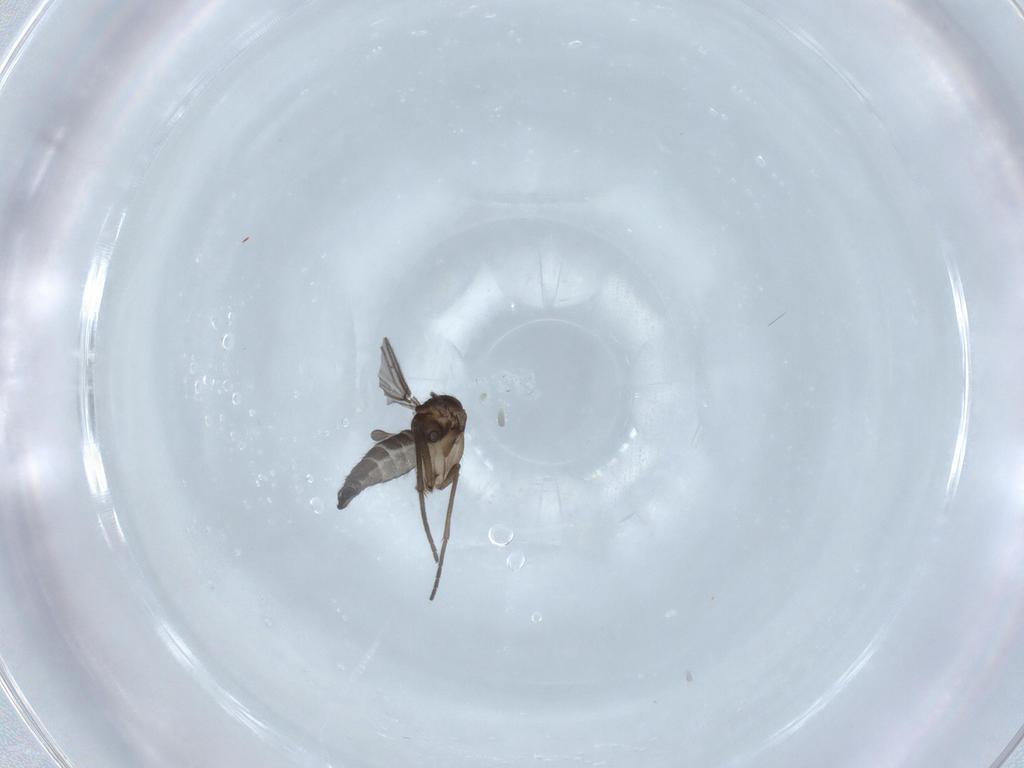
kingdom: Animalia
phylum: Arthropoda
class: Insecta
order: Diptera
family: Sciaridae
